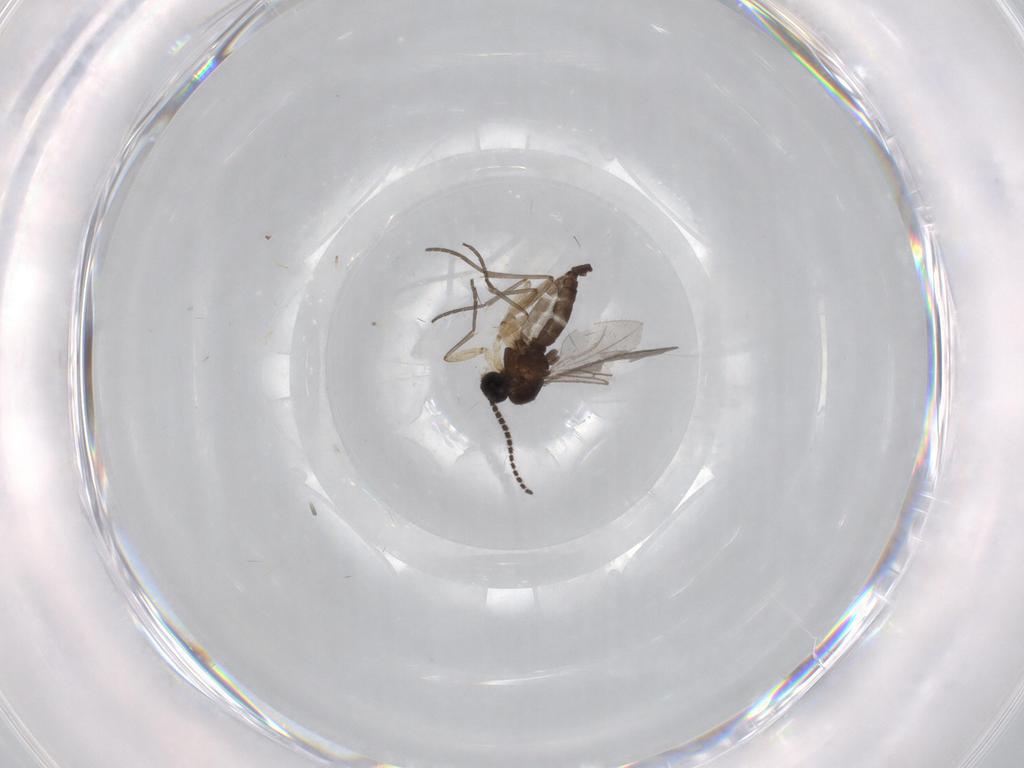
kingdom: Animalia
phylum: Arthropoda
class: Insecta
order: Diptera
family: Sciaridae
